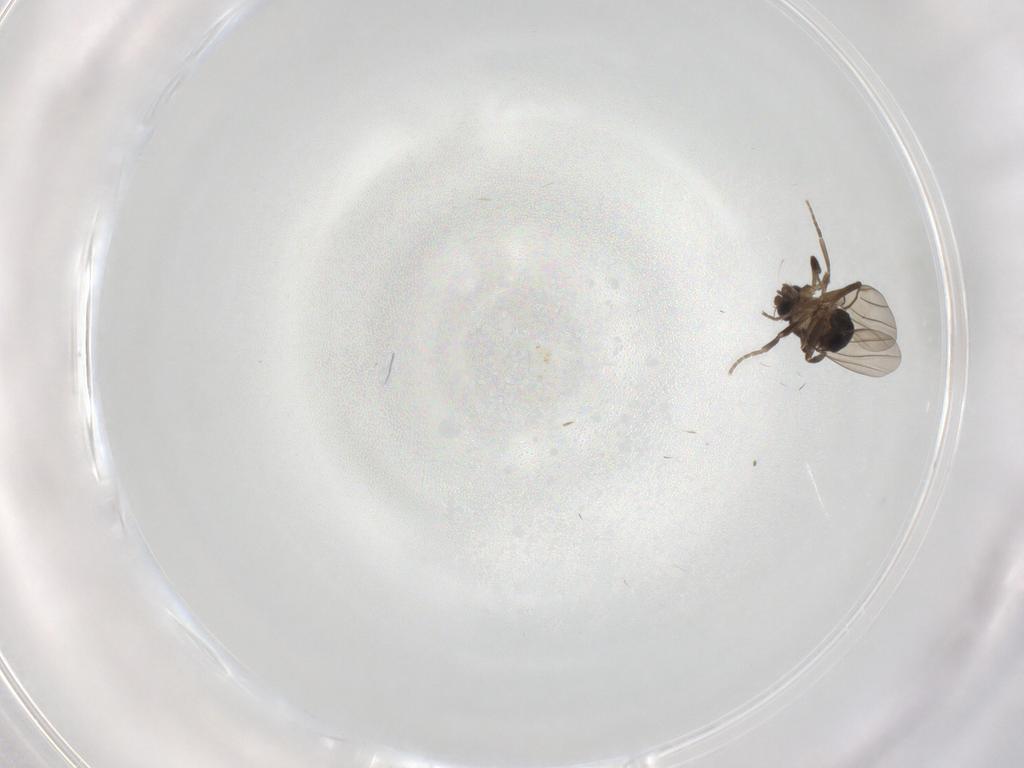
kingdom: Animalia
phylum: Arthropoda
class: Insecta
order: Diptera
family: Phoridae
